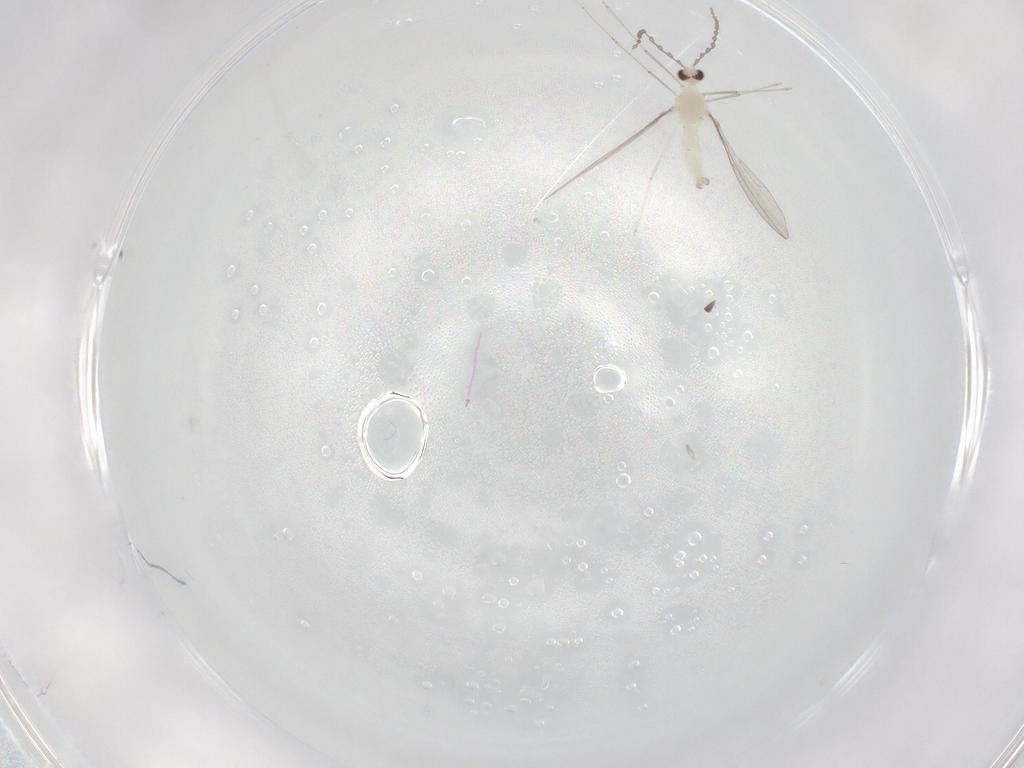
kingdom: Animalia
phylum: Arthropoda
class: Insecta
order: Diptera
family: Cecidomyiidae
